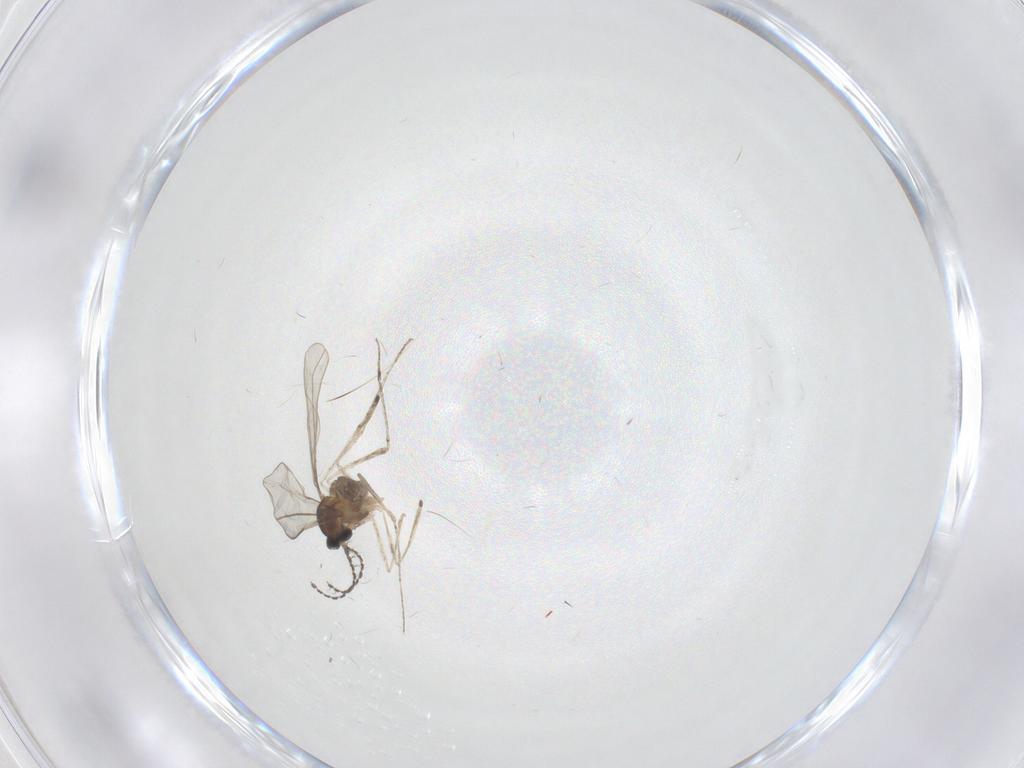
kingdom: Animalia
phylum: Arthropoda
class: Insecta
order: Diptera
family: Cecidomyiidae
